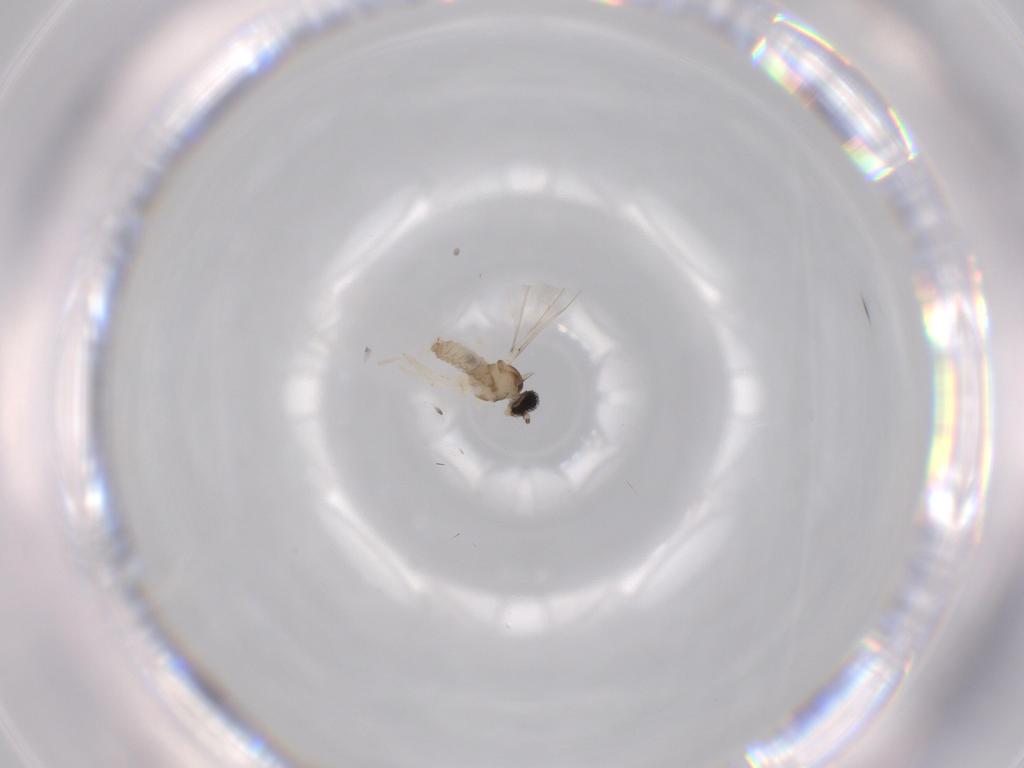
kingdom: Animalia
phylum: Arthropoda
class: Insecta
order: Diptera
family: Cecidomyiidae
